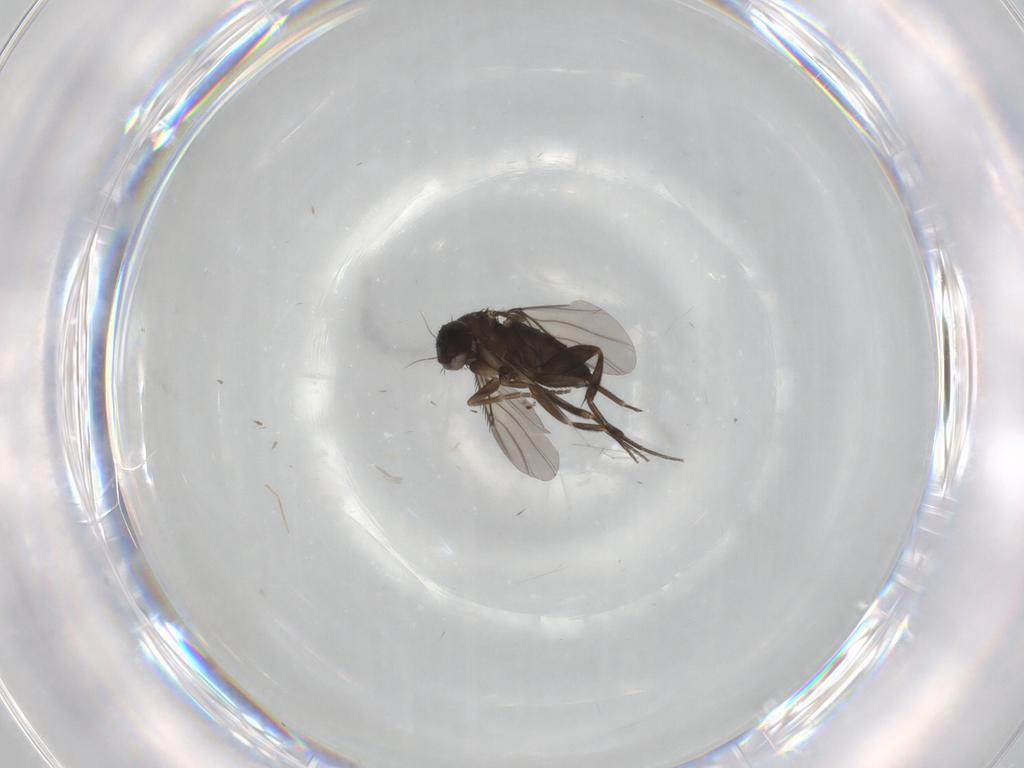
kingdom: Animalia
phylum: Arthropoda
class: Insecta
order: Diptera
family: Phoridae
